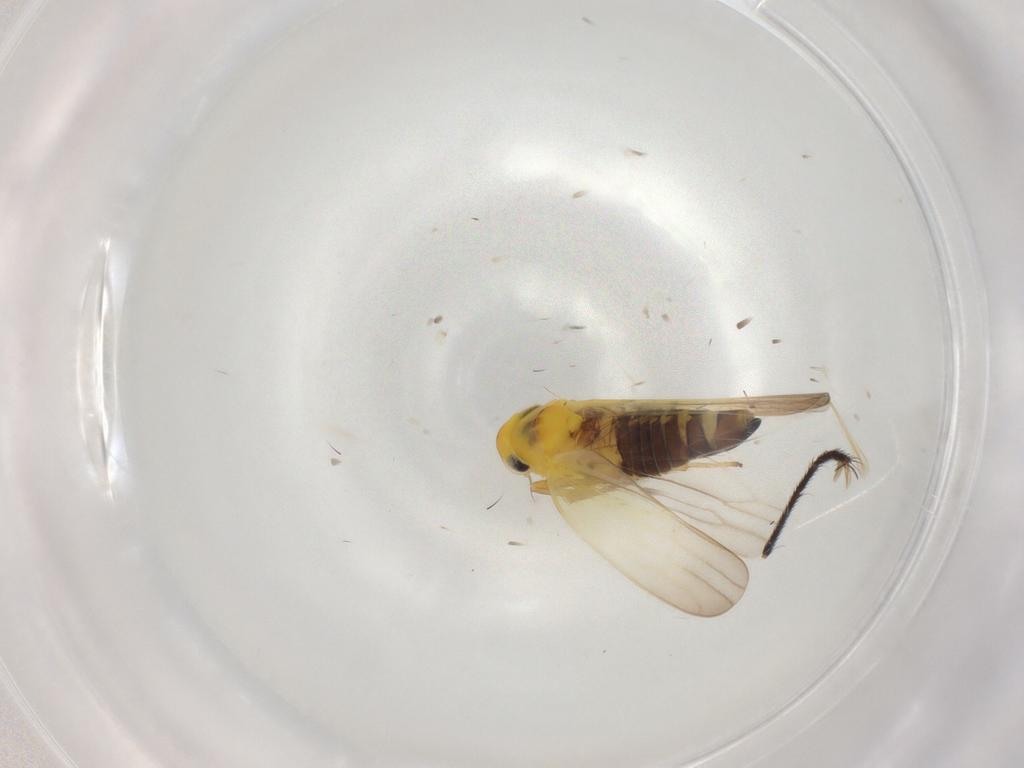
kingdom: Animalia
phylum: Arthropoda
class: Insecta
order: Hemiptera
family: Cicadellidae
